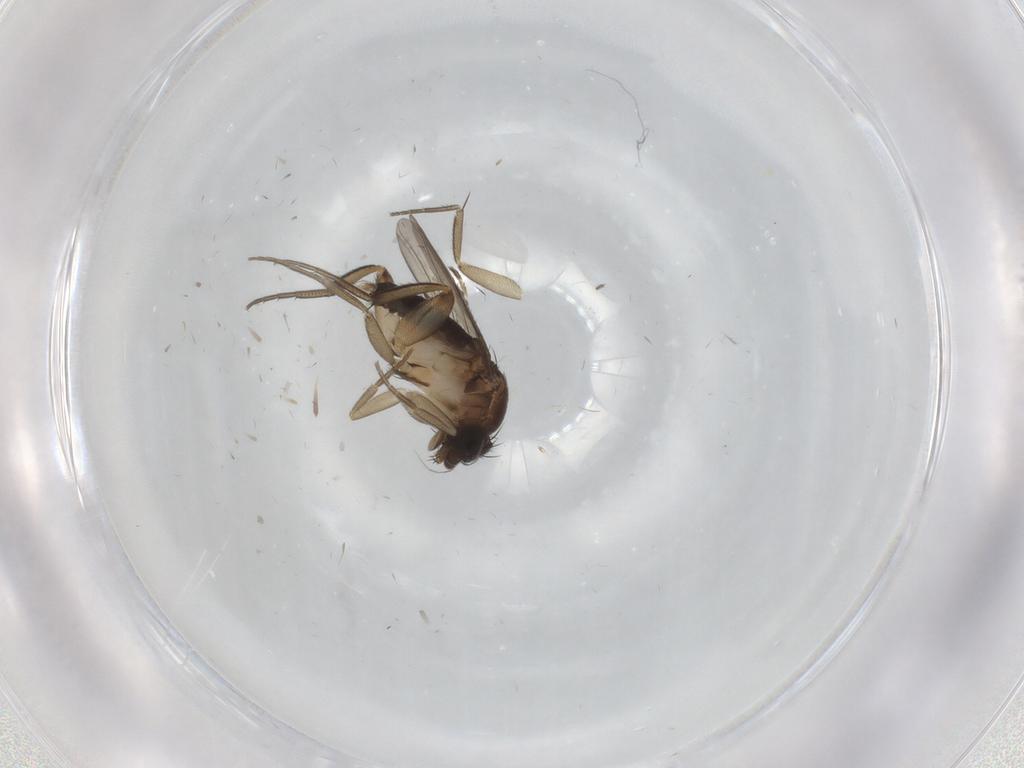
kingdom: Animalia
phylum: Arthropoda
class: Insecta
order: Diptera
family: Phoridae
